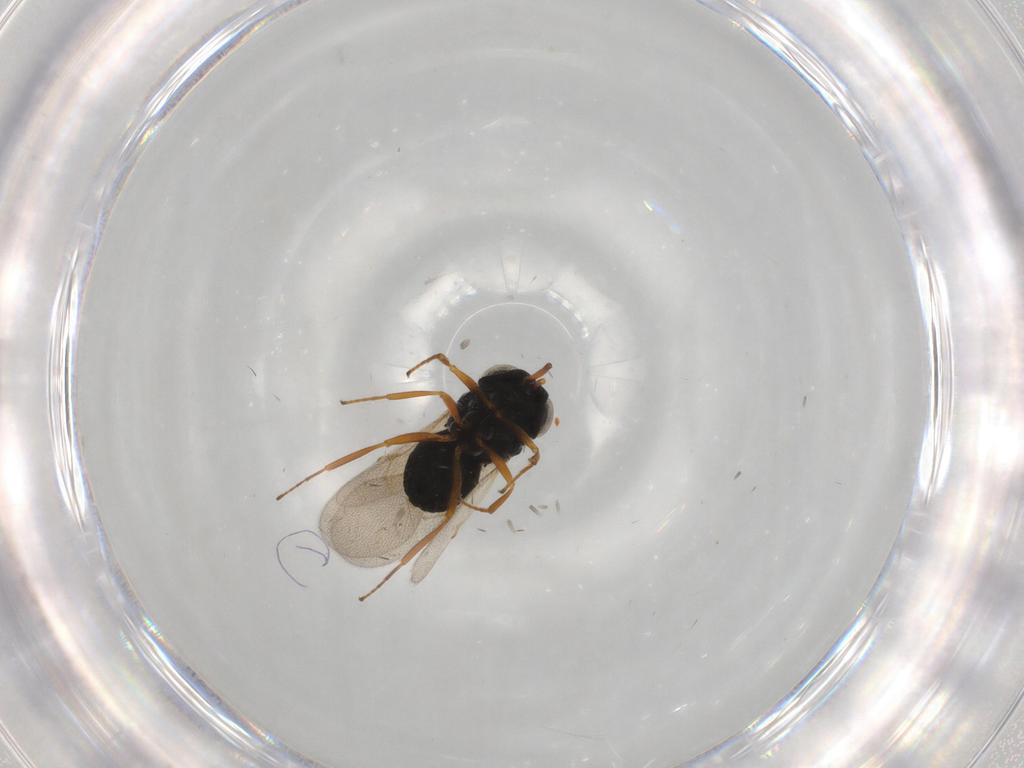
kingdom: Animalia
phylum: Arthropoda
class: Insecta
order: Hymenoptera
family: Scelionidae
